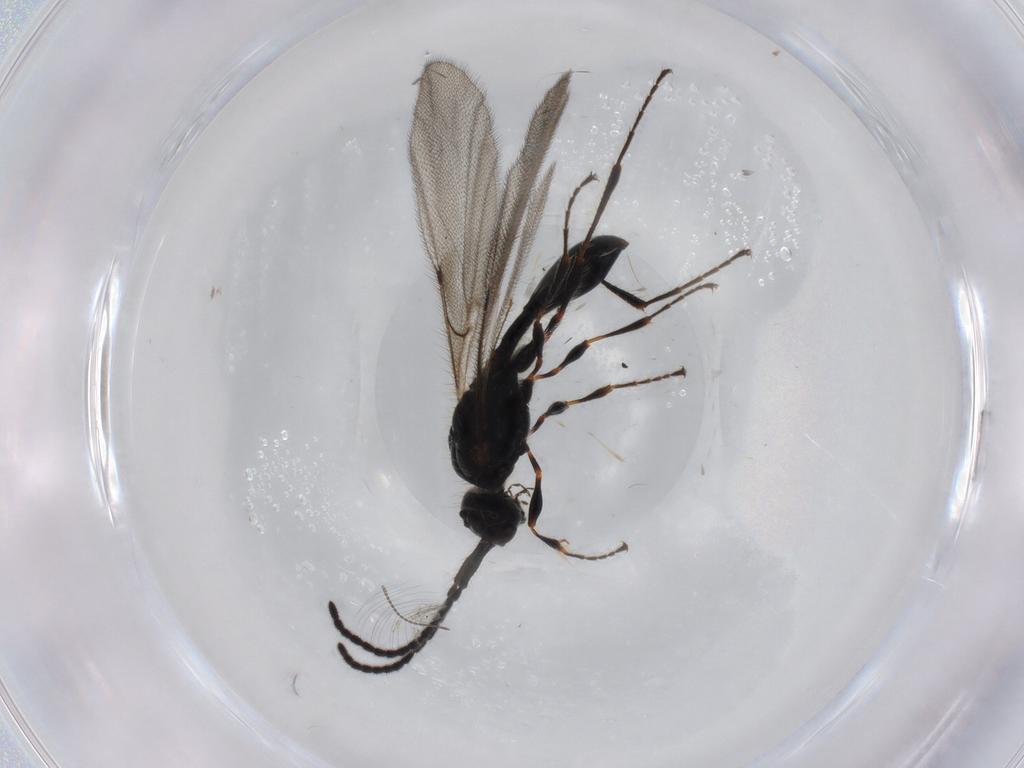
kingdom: Animalia
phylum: Arthropoda
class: Insecta
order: Hymenoptera
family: Diapriidae
